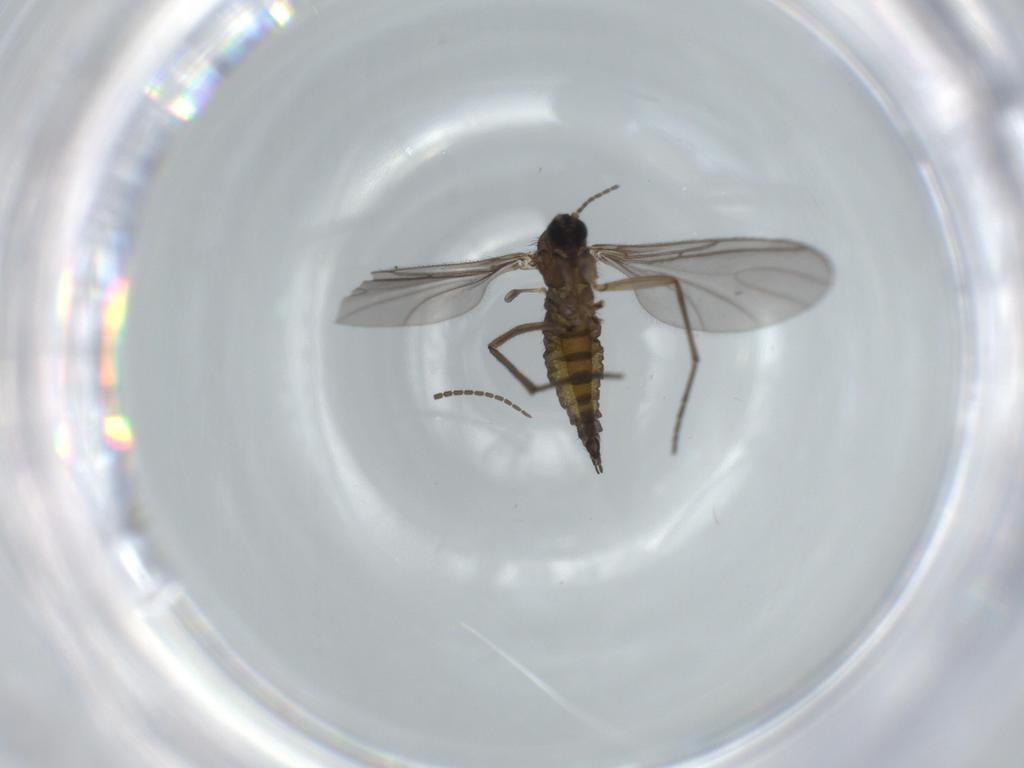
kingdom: Animalia
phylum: Arthropoda
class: Insecta
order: Diptera
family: Sciaridae
